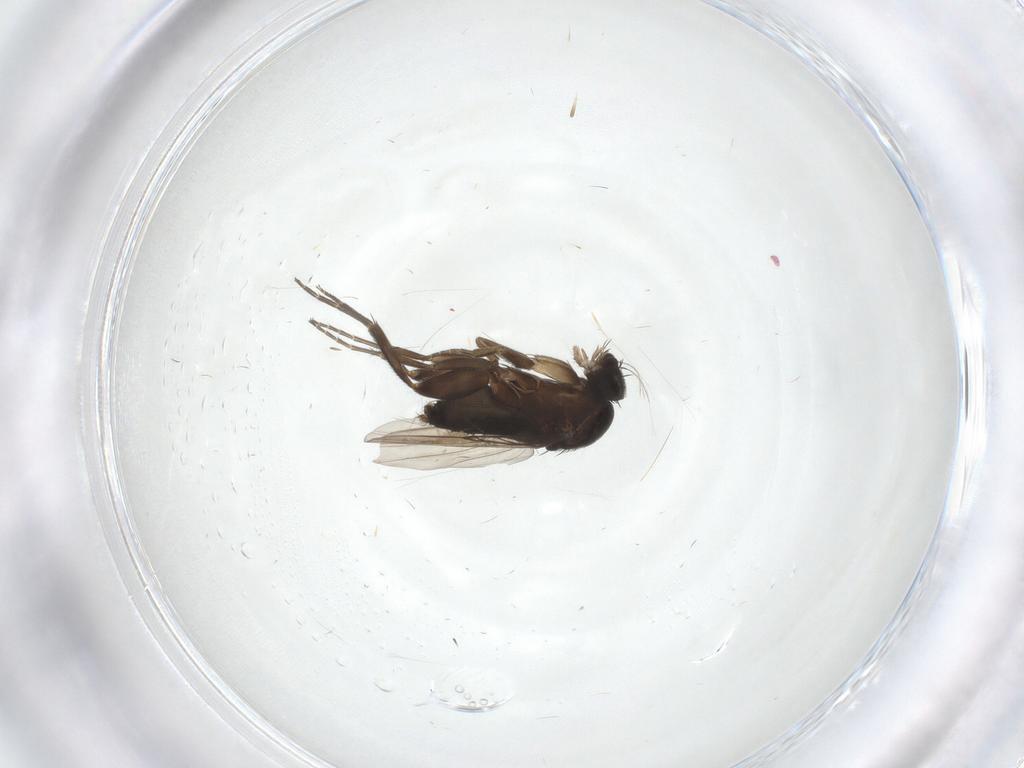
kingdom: Animalia
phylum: Arthropoda
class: Insecta
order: Diptera
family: Phoridae
